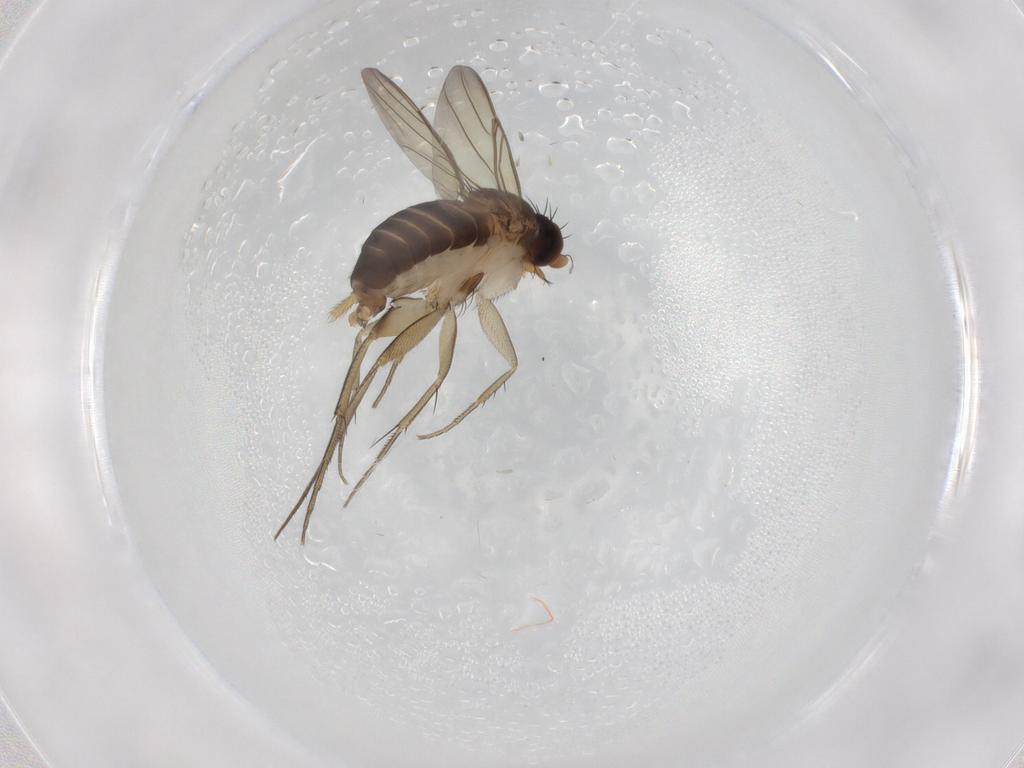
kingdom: Animalia
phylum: Arthropoda
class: Insecta
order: Diptera
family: Phoridae
